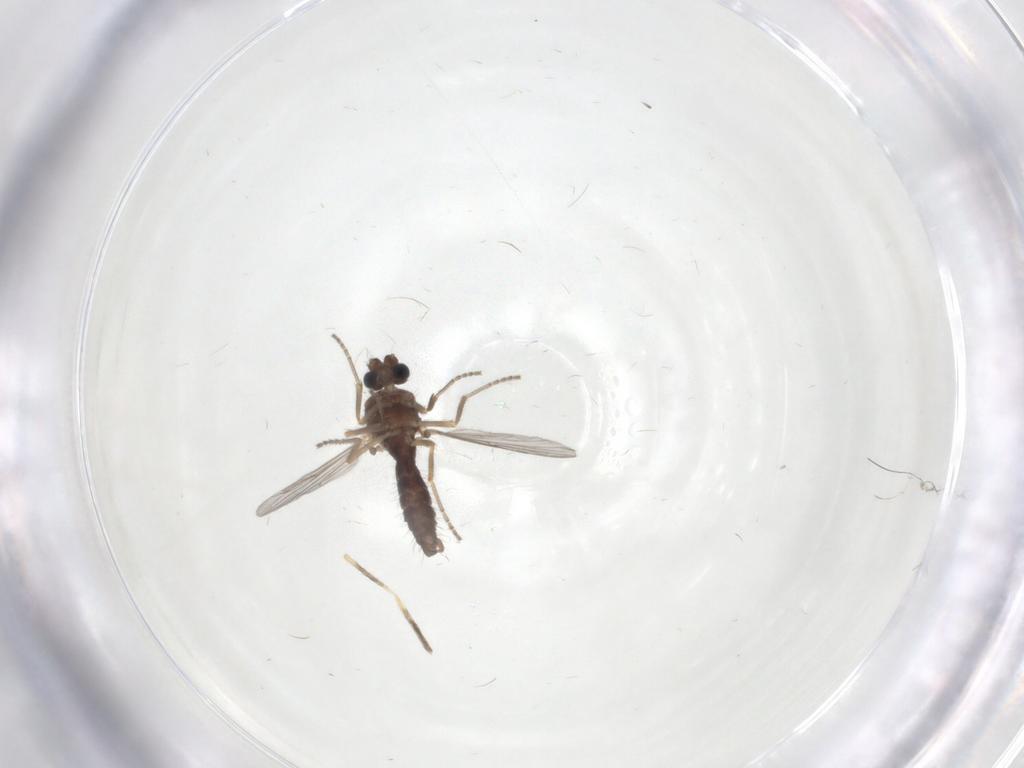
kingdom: Animalia
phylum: Arthropoda
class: Insecta
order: Diptera
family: Ceratopogonidae
